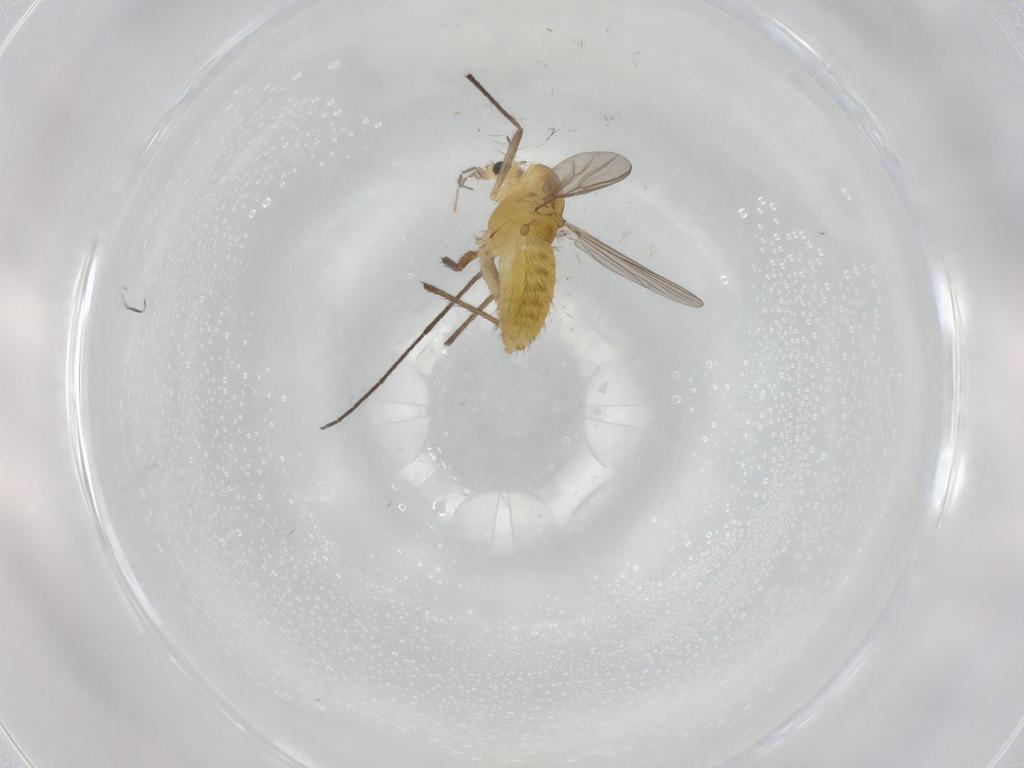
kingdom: Animalia
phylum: Arthropoda
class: Insecta
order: Diptera
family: Chironomidae
